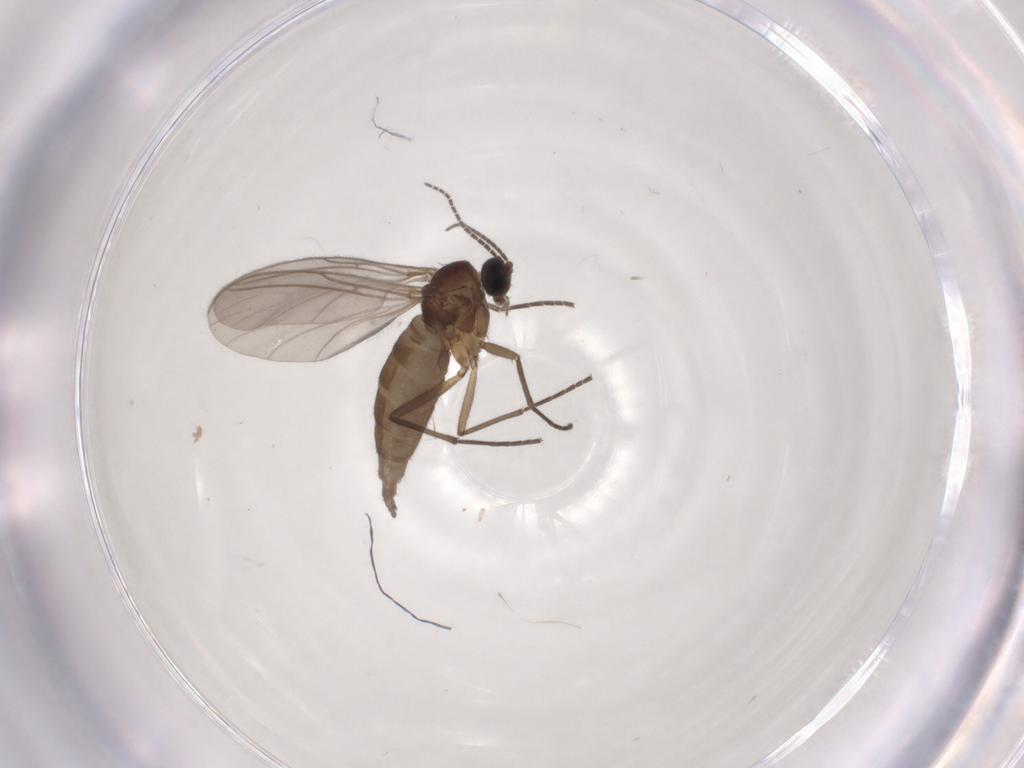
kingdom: Animalia
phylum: Arthropoda
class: Insecta
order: Diptera
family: Sciaridae
